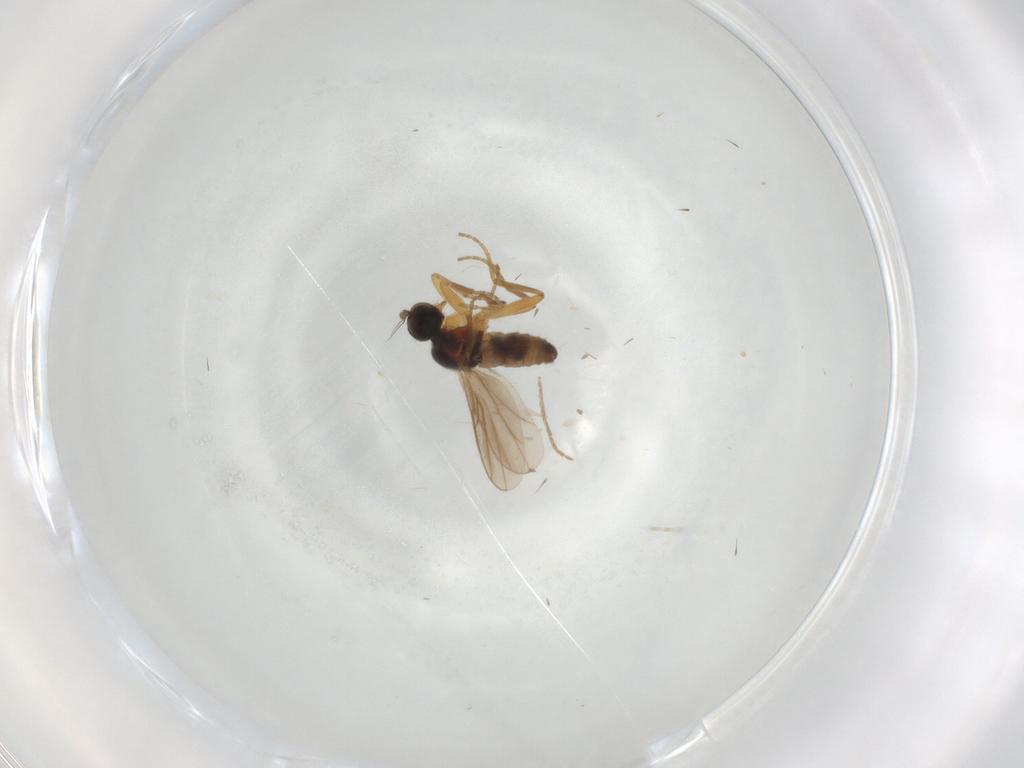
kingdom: Animalia
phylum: Arthropoda
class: Insecta
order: Diptera
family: Hybotidae
